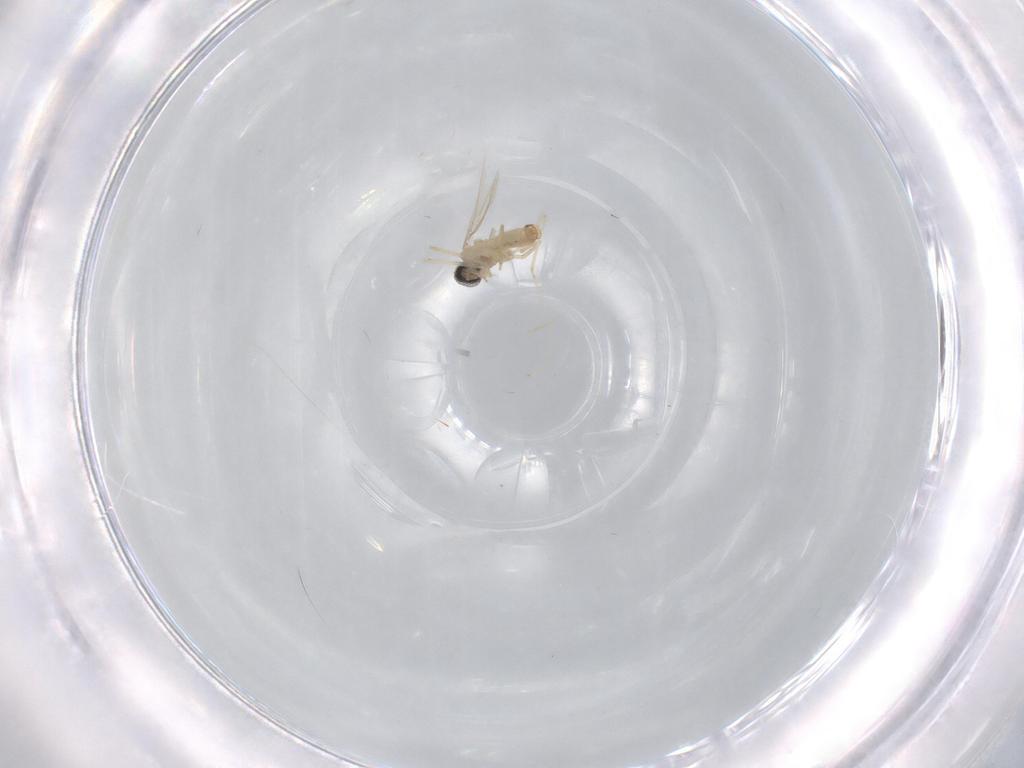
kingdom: Animalia
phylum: Arthropoda
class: Insecta
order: Diptera
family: Cecidomyiidae
